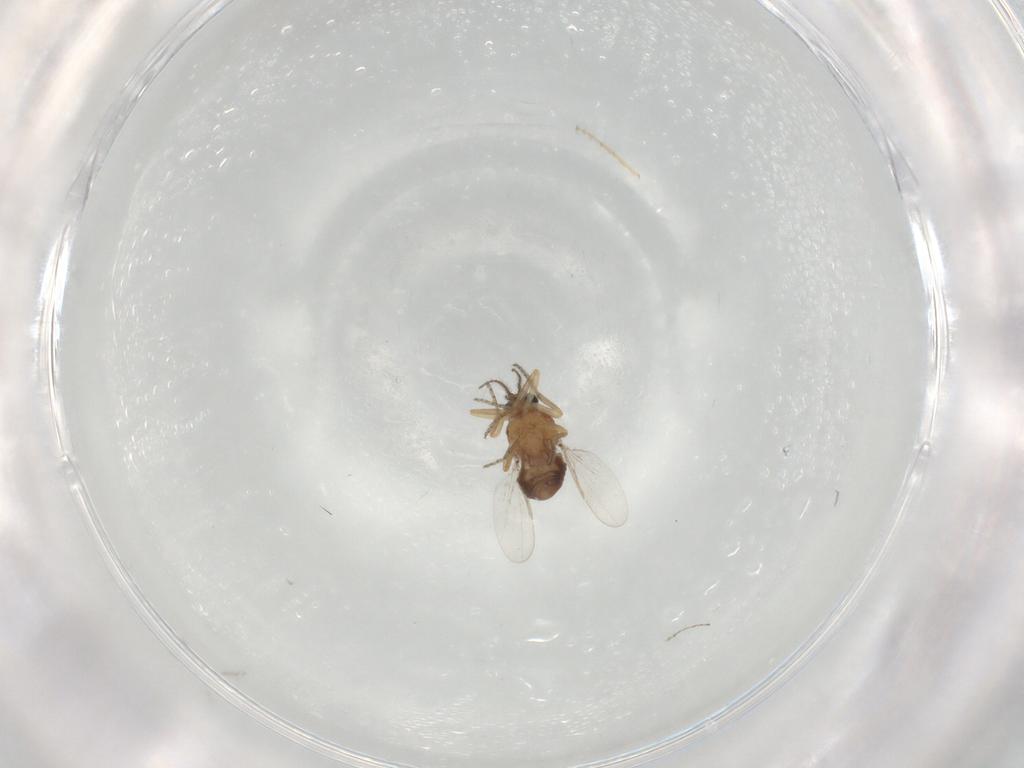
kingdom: Animalia
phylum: Arthropoda
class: Insecta
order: Diptera
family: Ceratopogonidae
